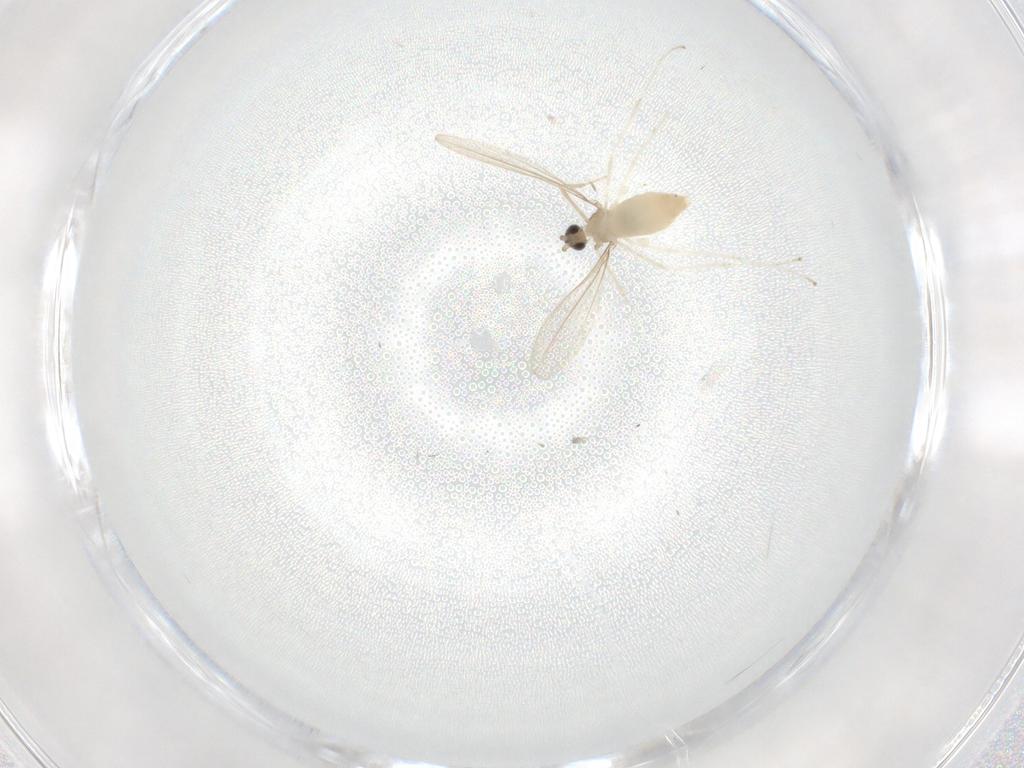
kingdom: Animalia
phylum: Arthropoda
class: Insecta
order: Diptera
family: Cecidomyiidae
